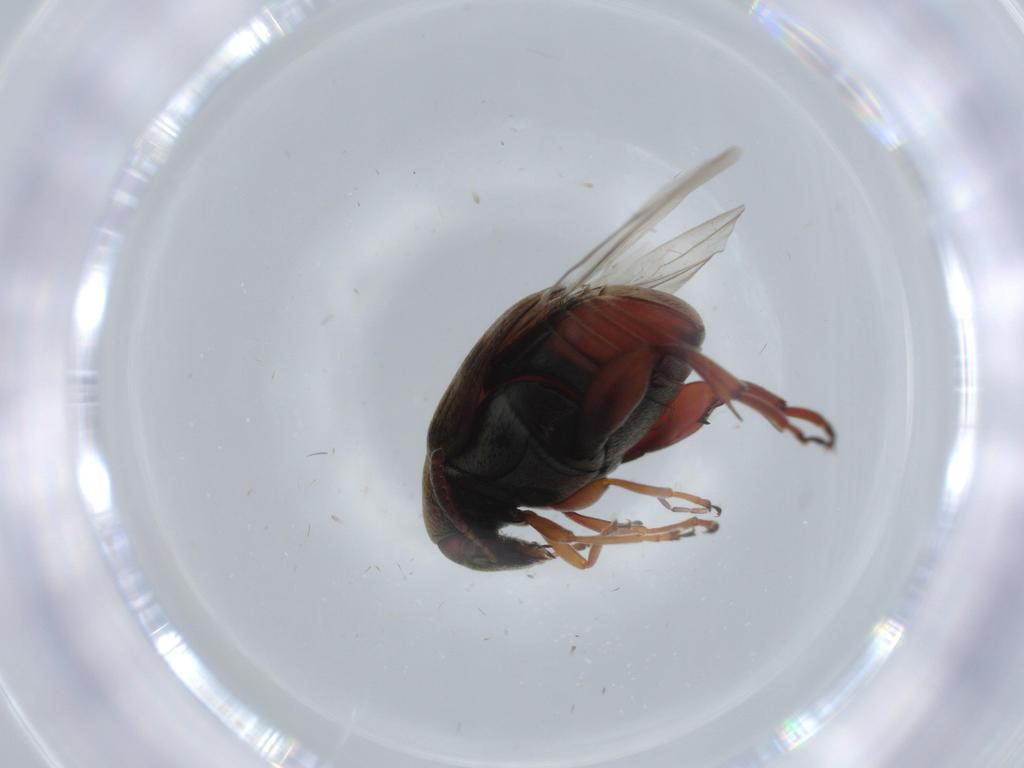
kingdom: Animalia
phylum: Arthropoda
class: Insecta
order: Coleoptera
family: Chrysomelidae
